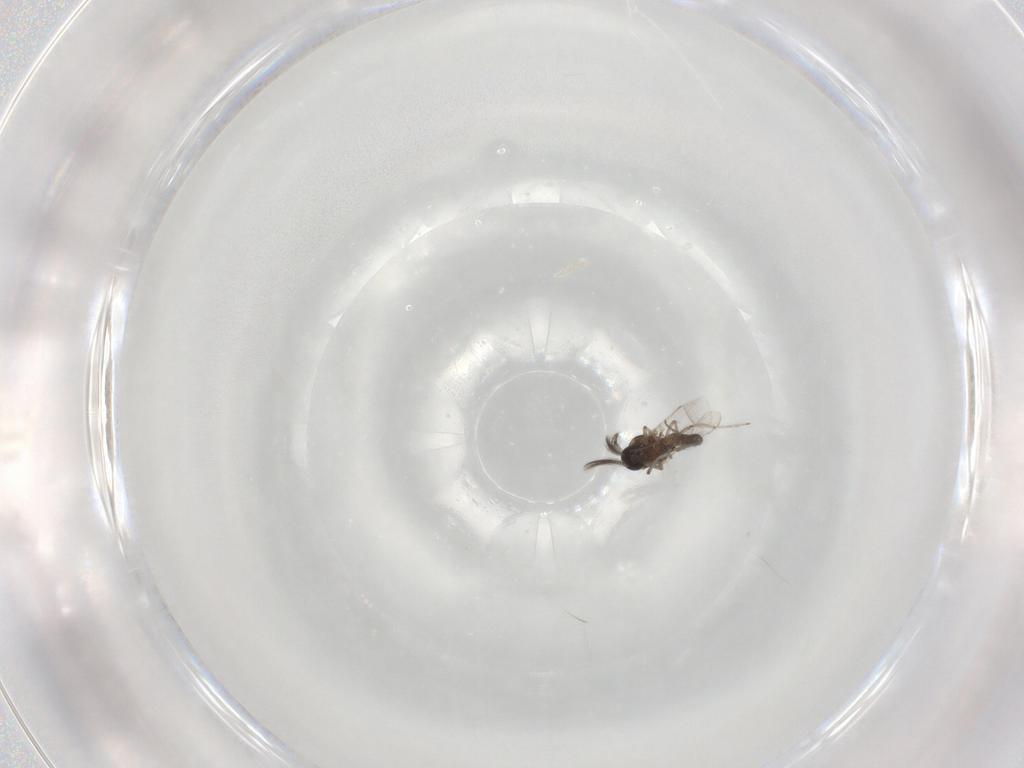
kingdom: Animalia
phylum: Arthropoda
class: Insecta
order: Diptera
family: Ceratopogonidae
